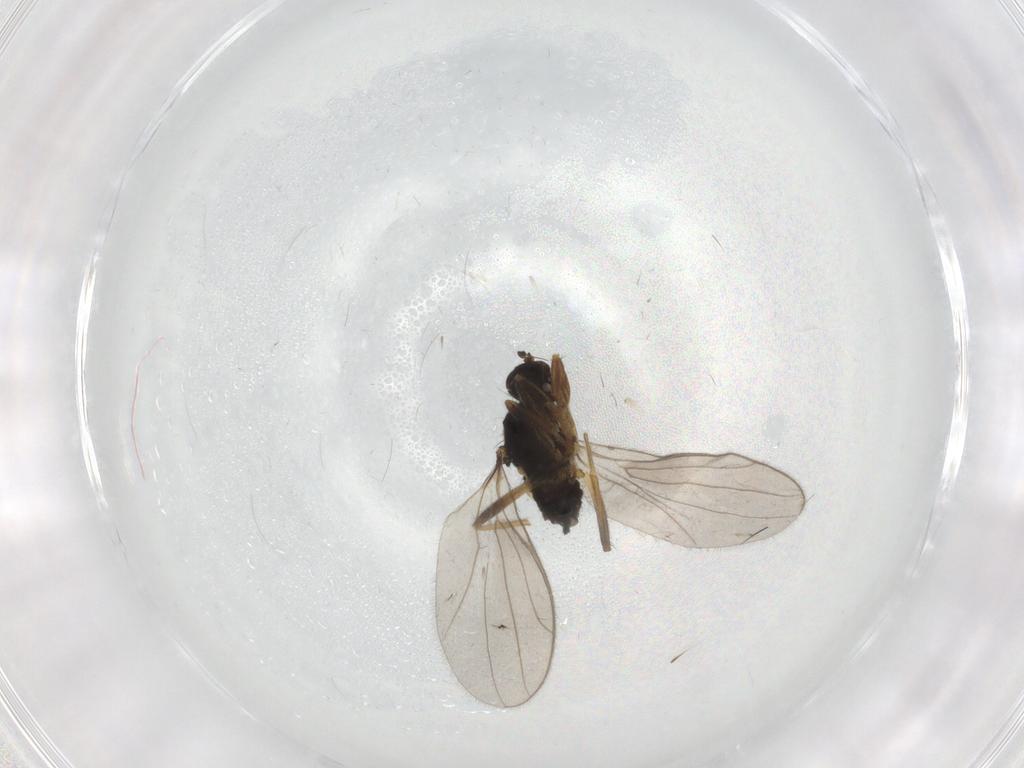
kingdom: Animalia
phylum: Arthropoda
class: Insecta
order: Diptera
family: Hybotidae
